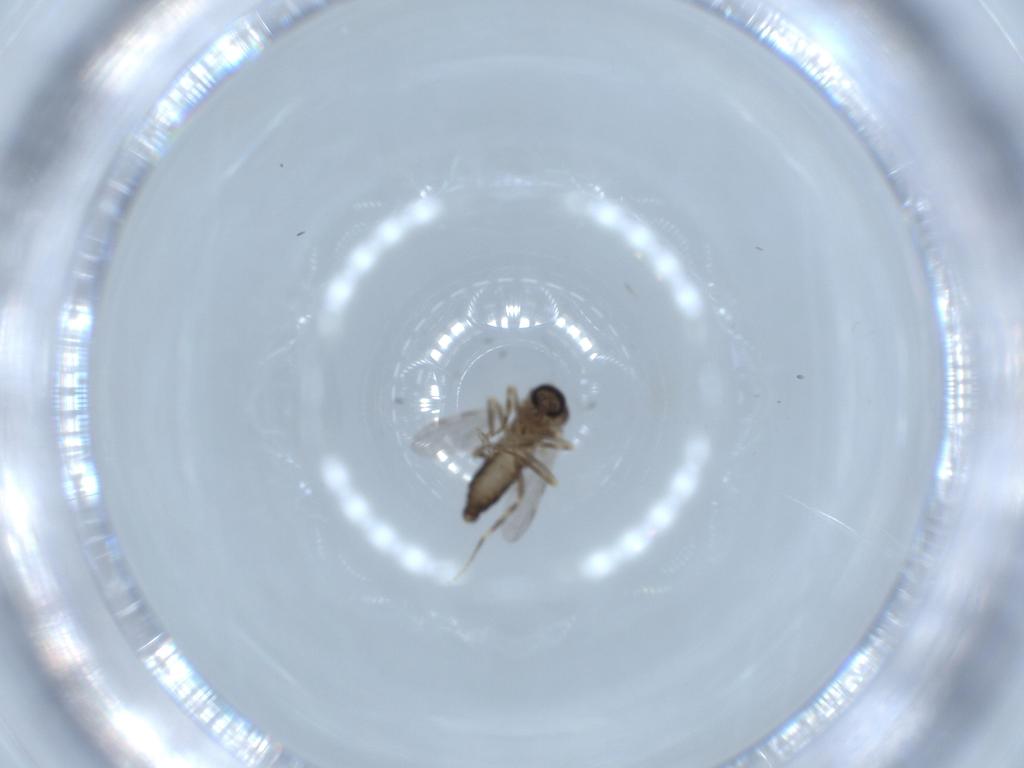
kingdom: Animalia
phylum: Arthropoda
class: Insecta
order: Diptera
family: Ceratopogonidae
